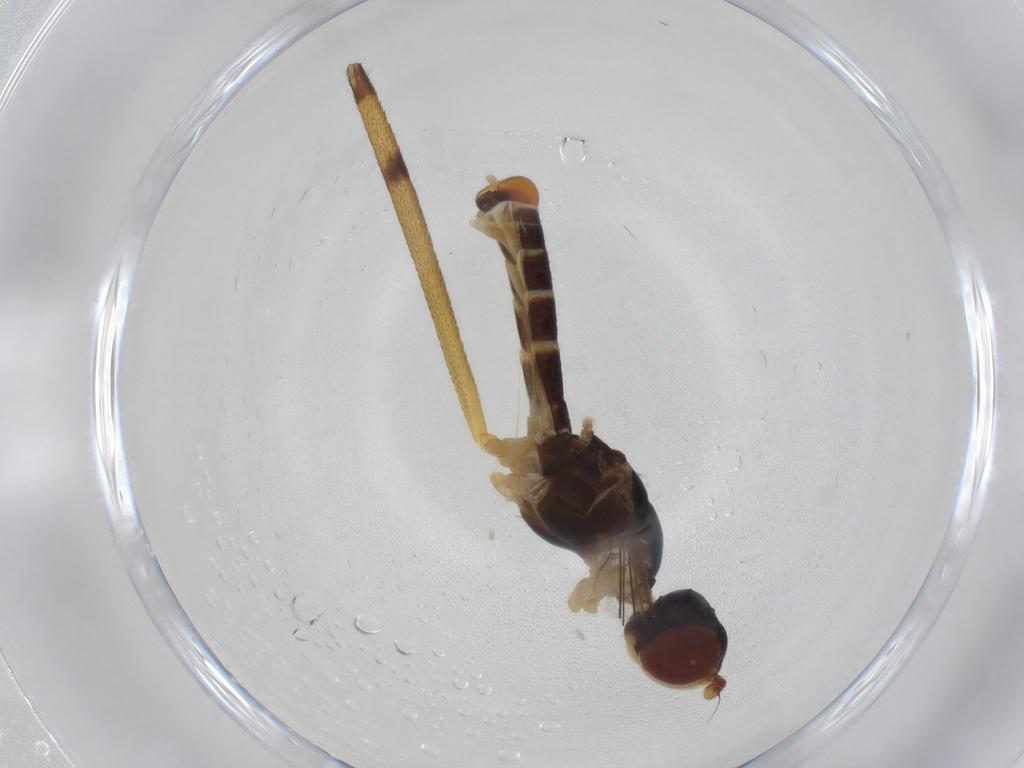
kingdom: Animalia
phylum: Arthropoda
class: Insecta
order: Diptera
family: Micropezidae
